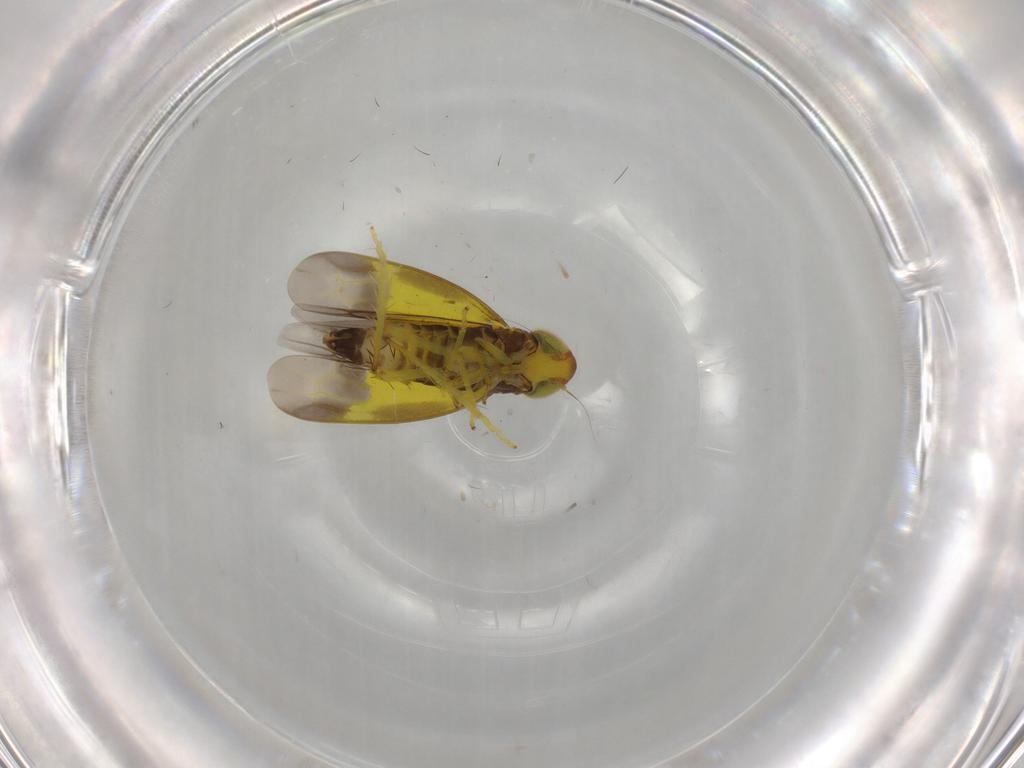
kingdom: Animalia
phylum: Arthropoda
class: Insecta
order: Hemiptera
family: Cicadellidae
